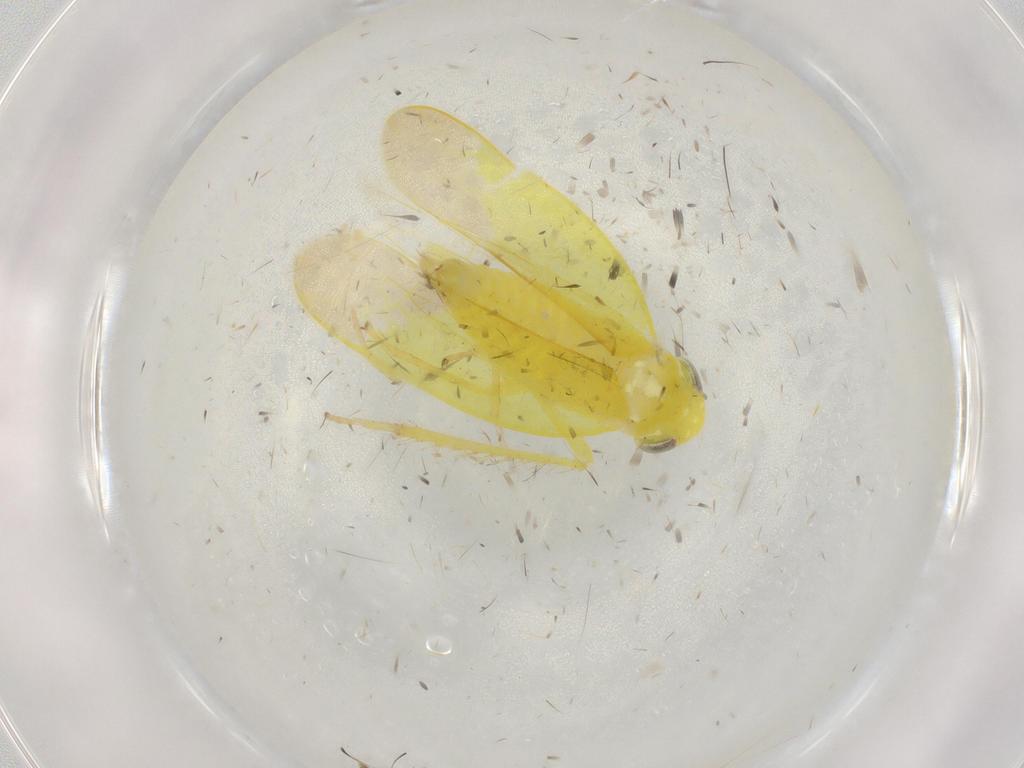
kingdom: Animalia
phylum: Arthropoda
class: Insecta
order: Hemiptera
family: Cicadellidae
